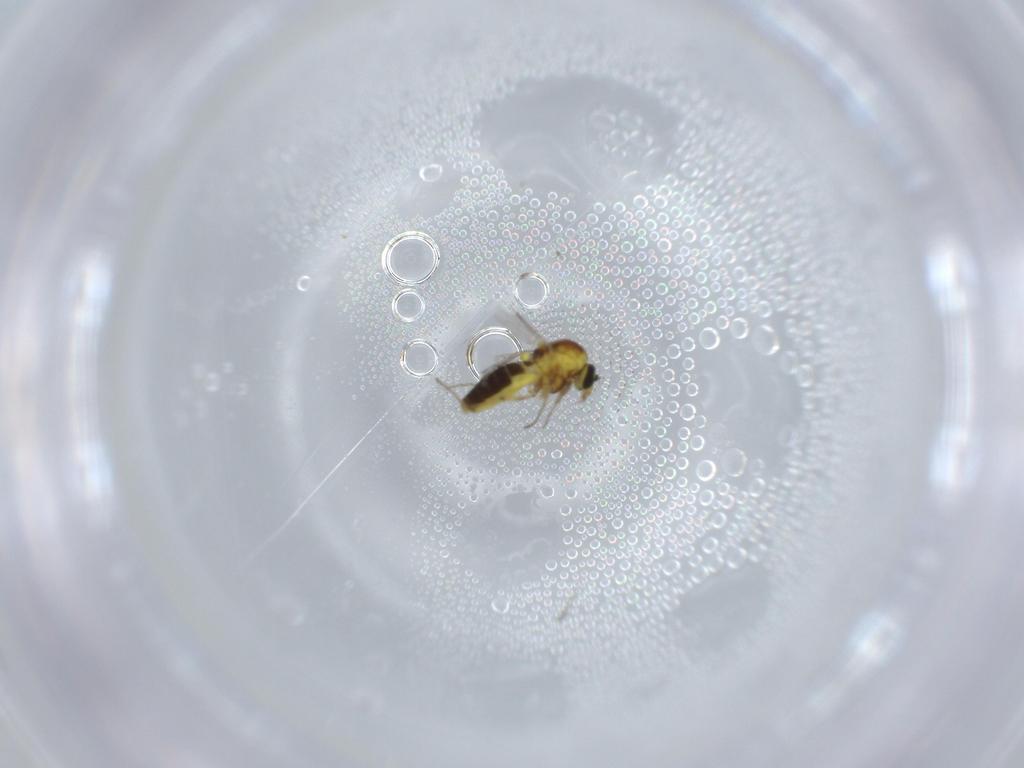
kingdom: Animalia
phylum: Arthropoda
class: Insecta
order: Diptera
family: Ceratopogonidae
